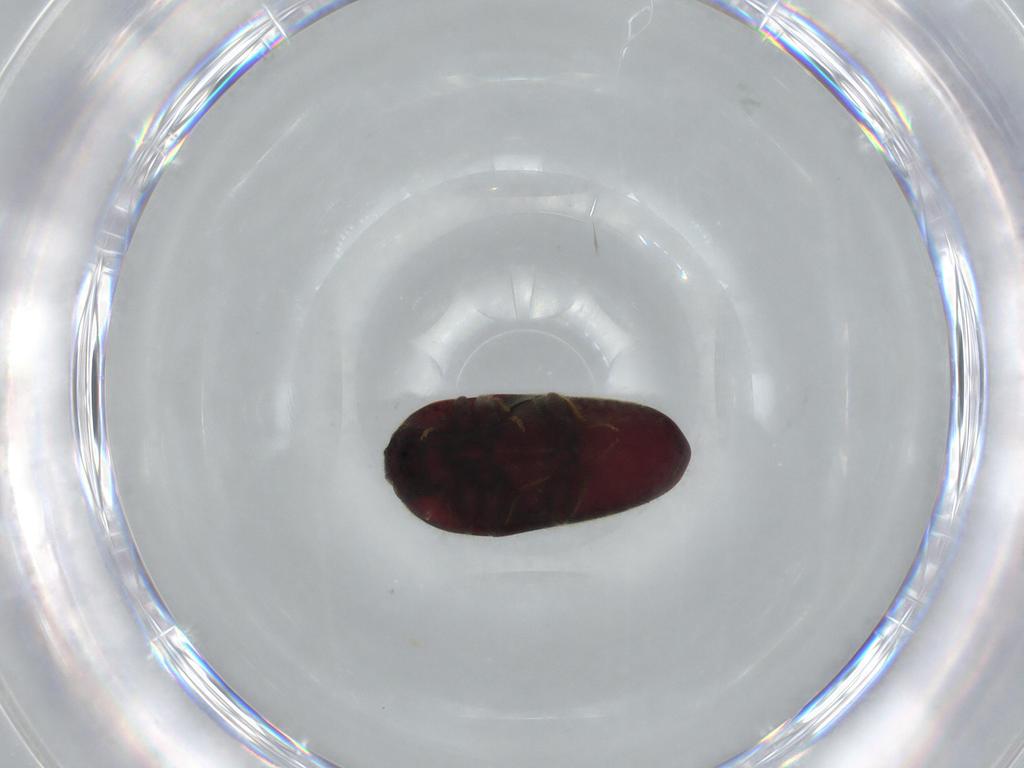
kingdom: Animalia
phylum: Arthropoda
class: Insecta
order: Coleoptera
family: Throscidae
